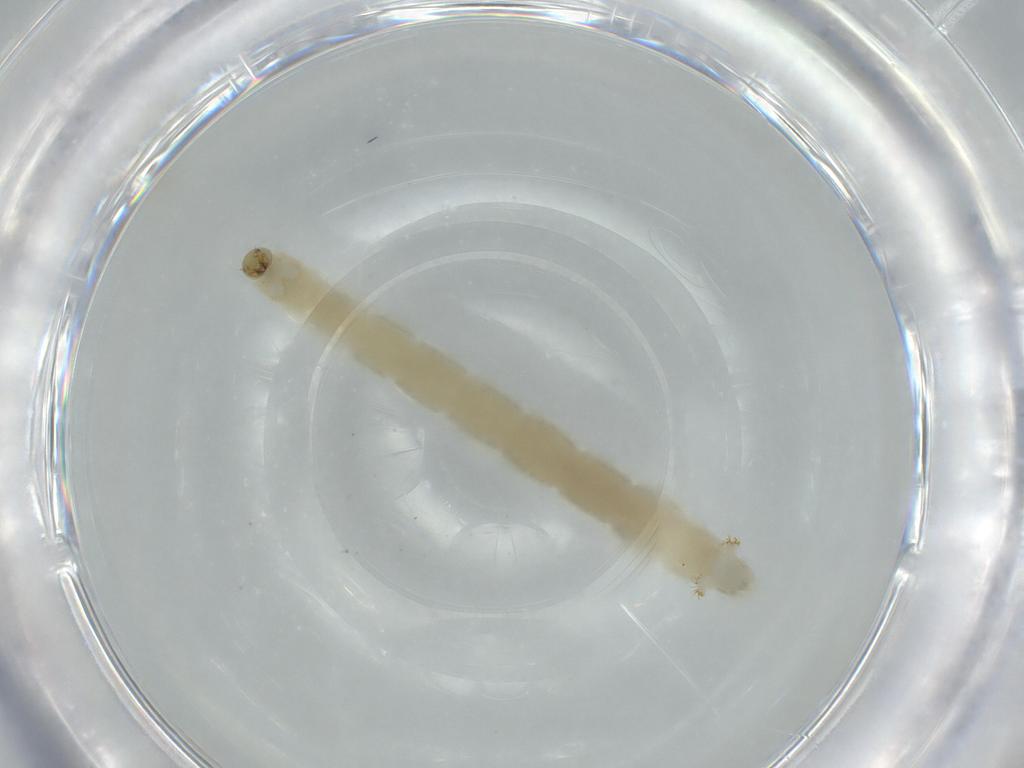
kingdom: Animalia
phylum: Arthropoda
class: Insecta
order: Diptera
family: Chironomidae
